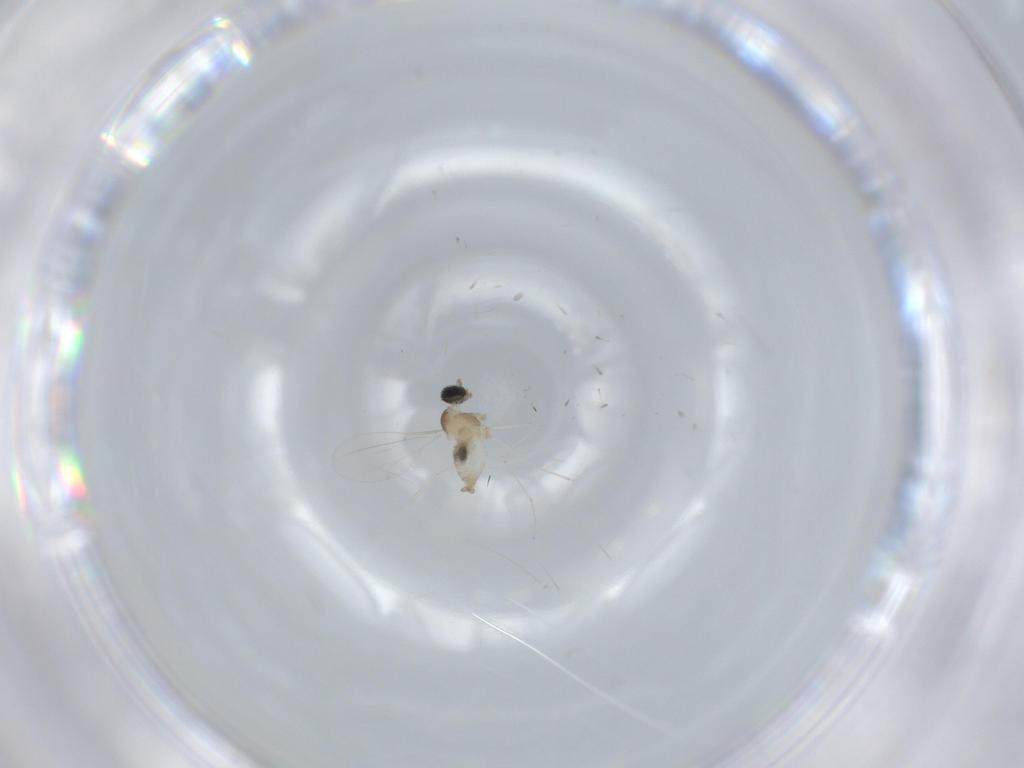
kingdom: Animalia
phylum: Arthropoda
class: Insecta
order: Diptera
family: Cecidomyiidae
